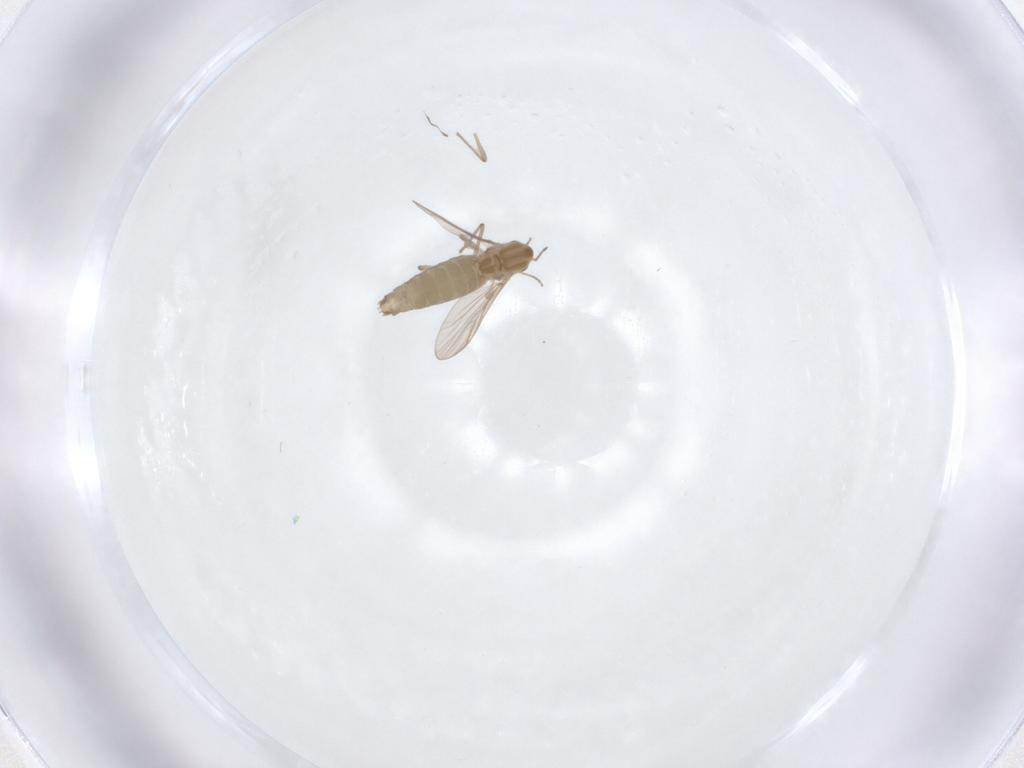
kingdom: Animalia
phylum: Arthropoda
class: Insecta
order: Diptera
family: Chironomidae
